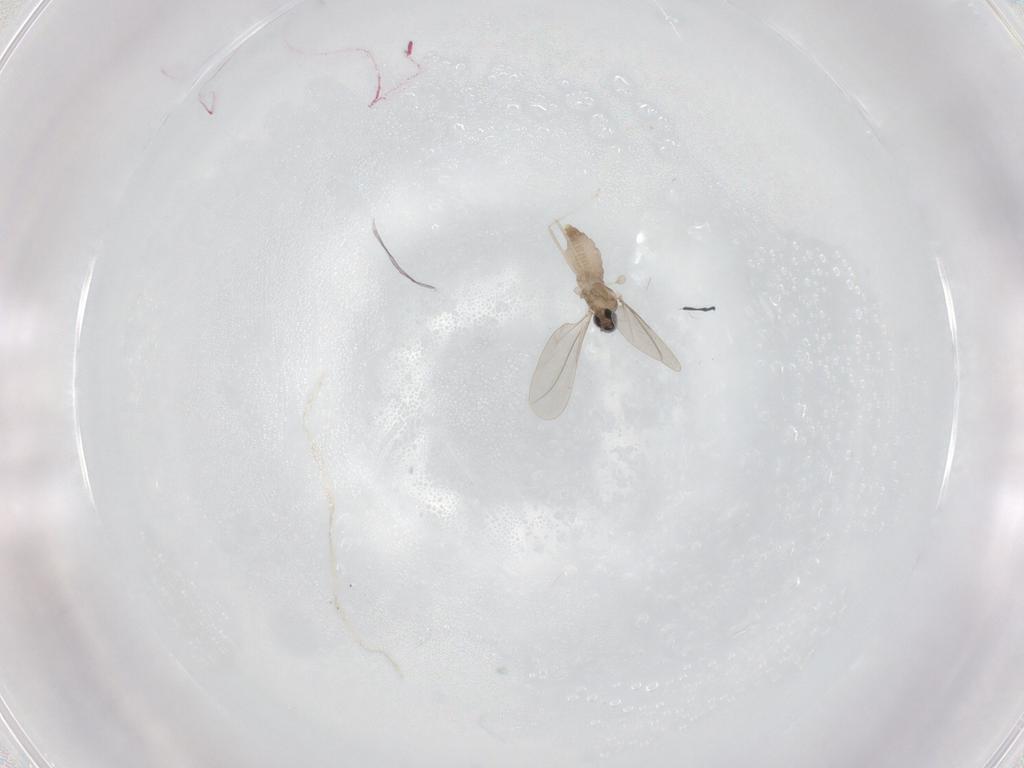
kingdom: Animalia
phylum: Arthropoda
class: Insecta
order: Diptera
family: Cecidomyiidae
